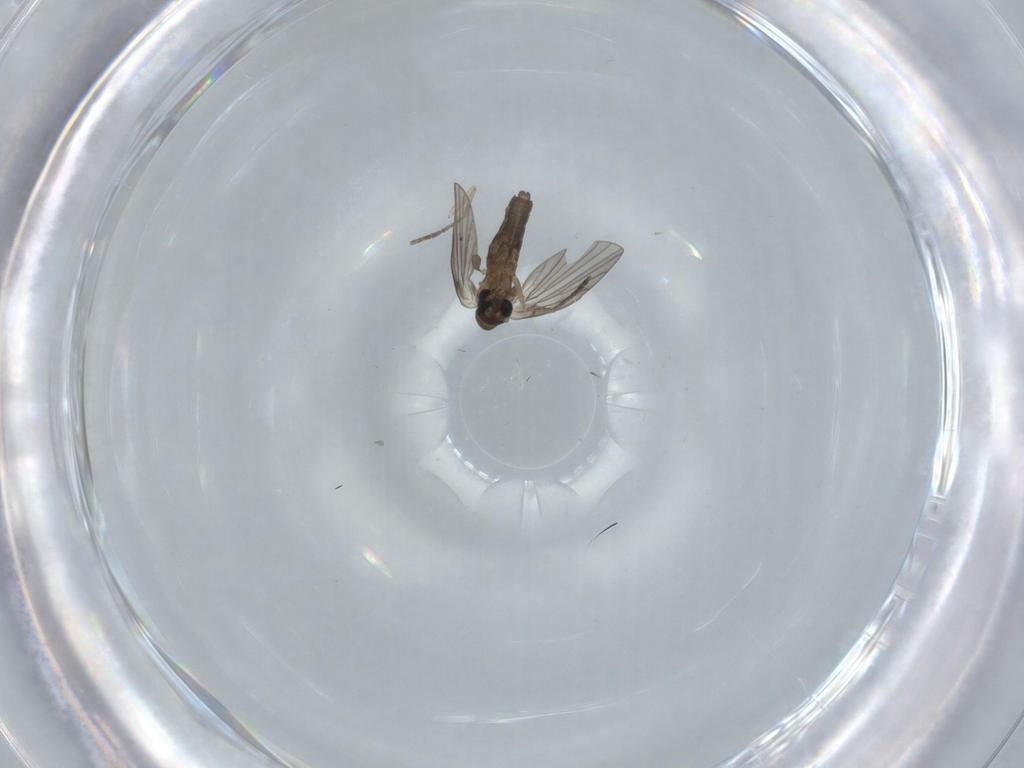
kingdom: Animalia
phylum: Arthropoda
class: Insecta
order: Diptera
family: Psychodidae
